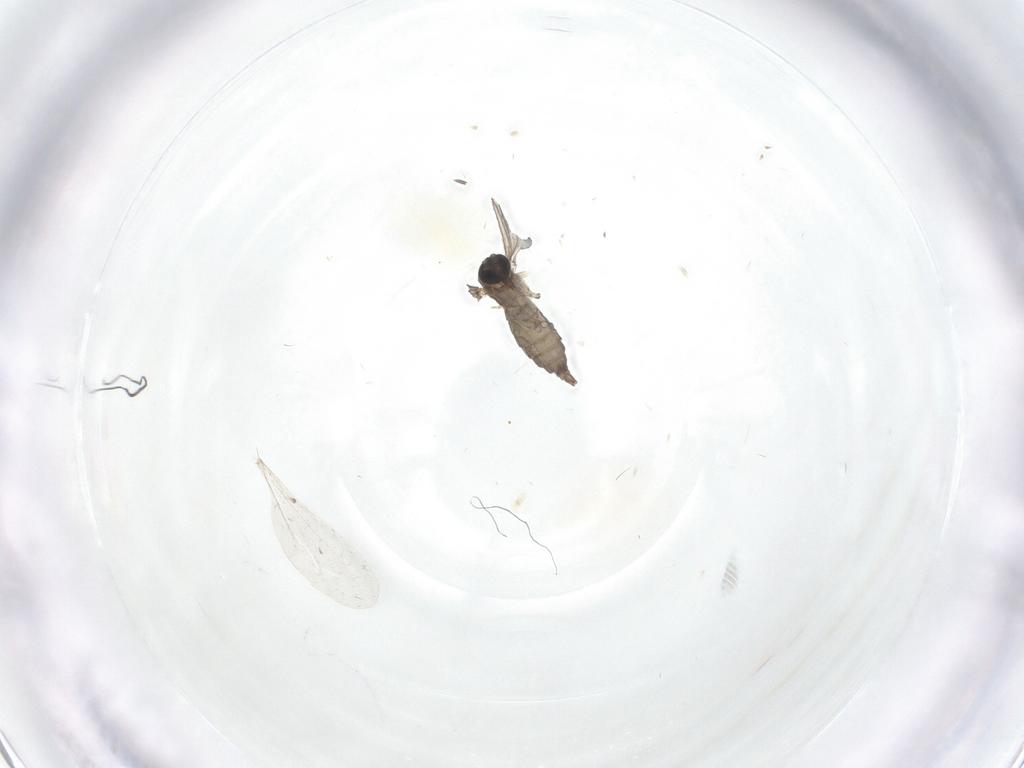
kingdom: Animalia
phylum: Arthropoda
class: Insecta
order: Diptera
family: Sciaridae
